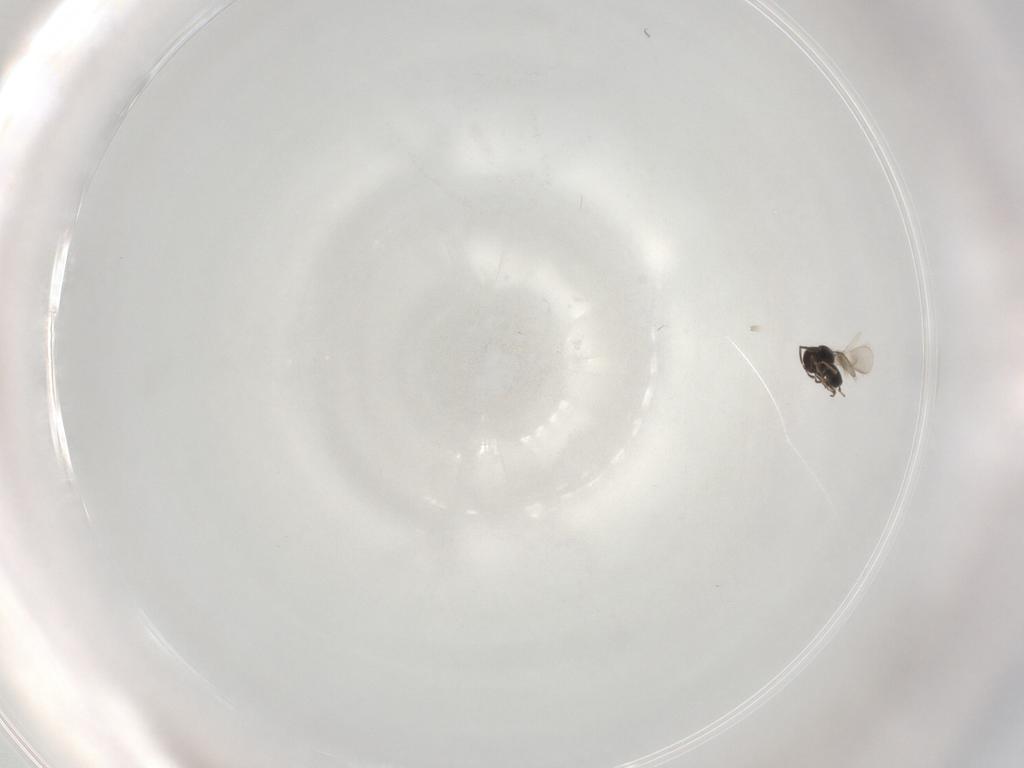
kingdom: Animalia
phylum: Arthropoda
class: Insecta
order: Hymenoptera
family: Scelionidae
